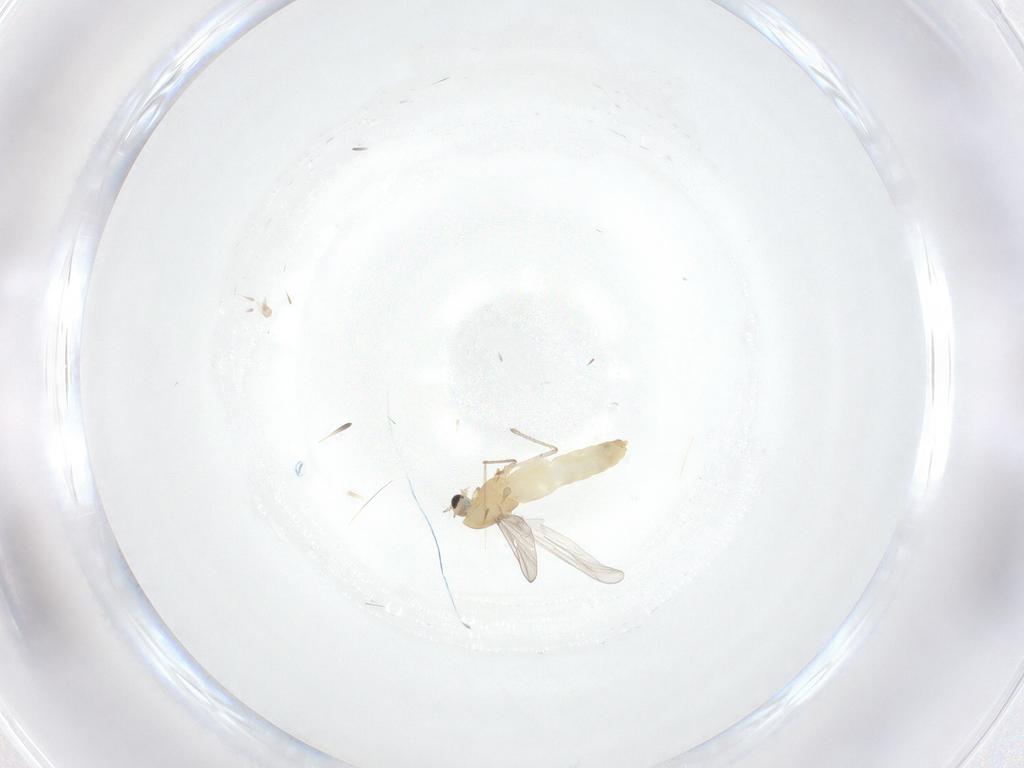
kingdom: Animalia
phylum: Arthropoda
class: Insecta
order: Diptera
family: Chironomidae
